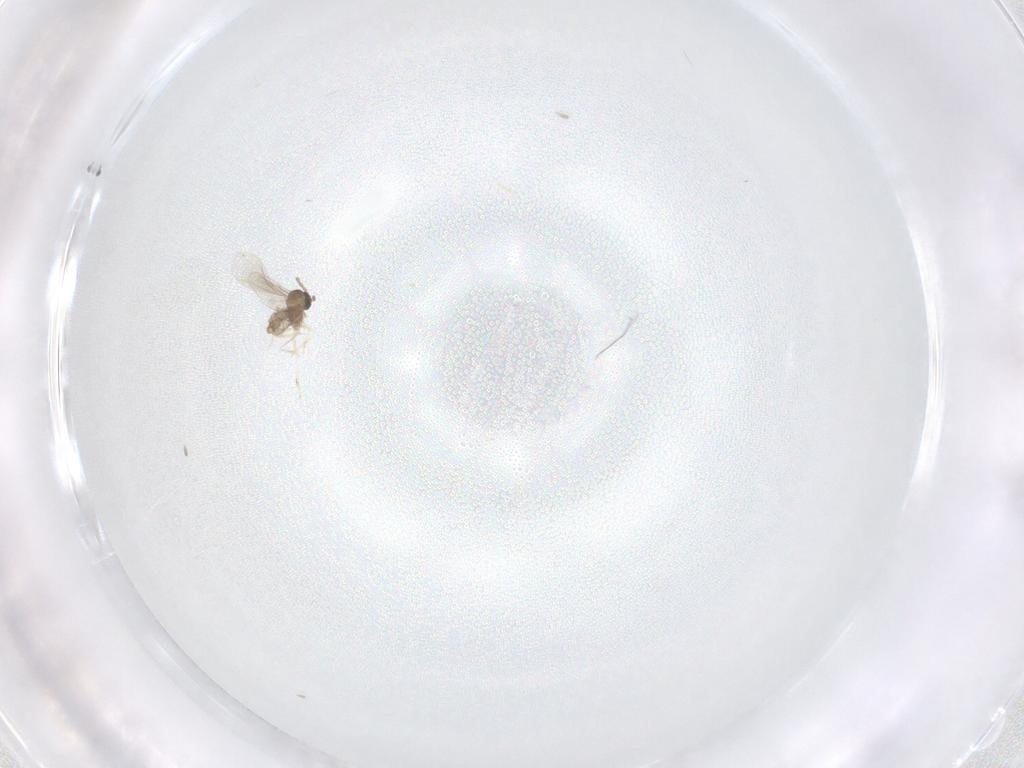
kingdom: Animalia
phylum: Arthropoda
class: Insecta
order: Diptera
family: Cecidomyiidae
